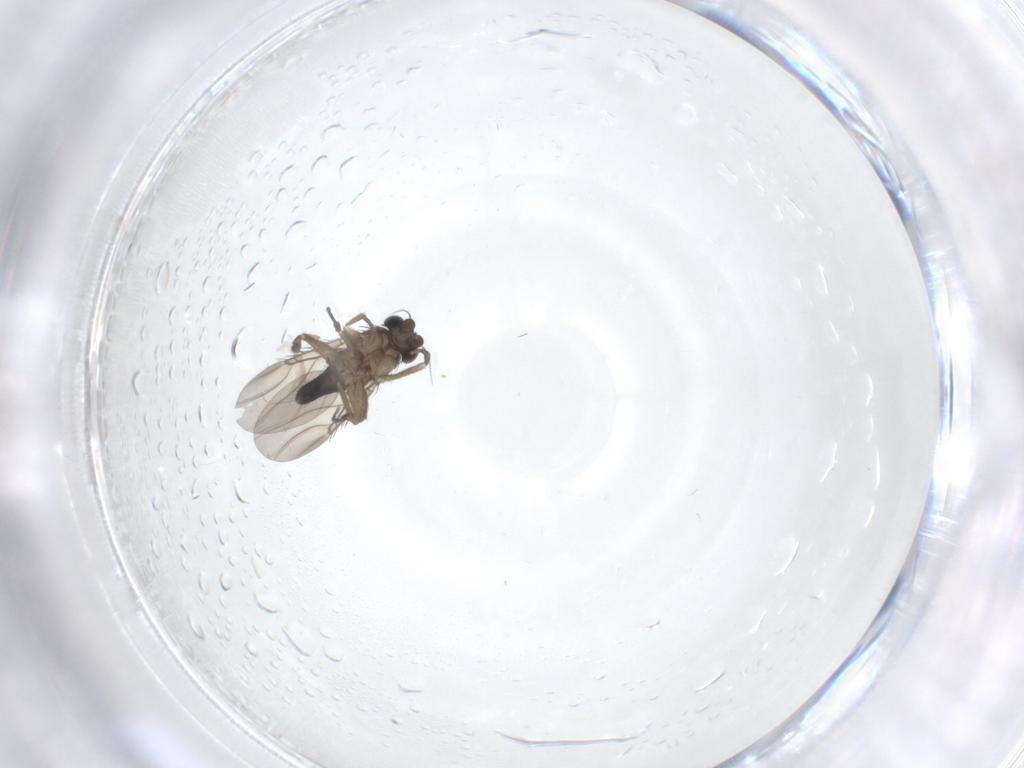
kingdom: Animalia
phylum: Arthropoda
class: Insecta
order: Diptera
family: Phoridae
